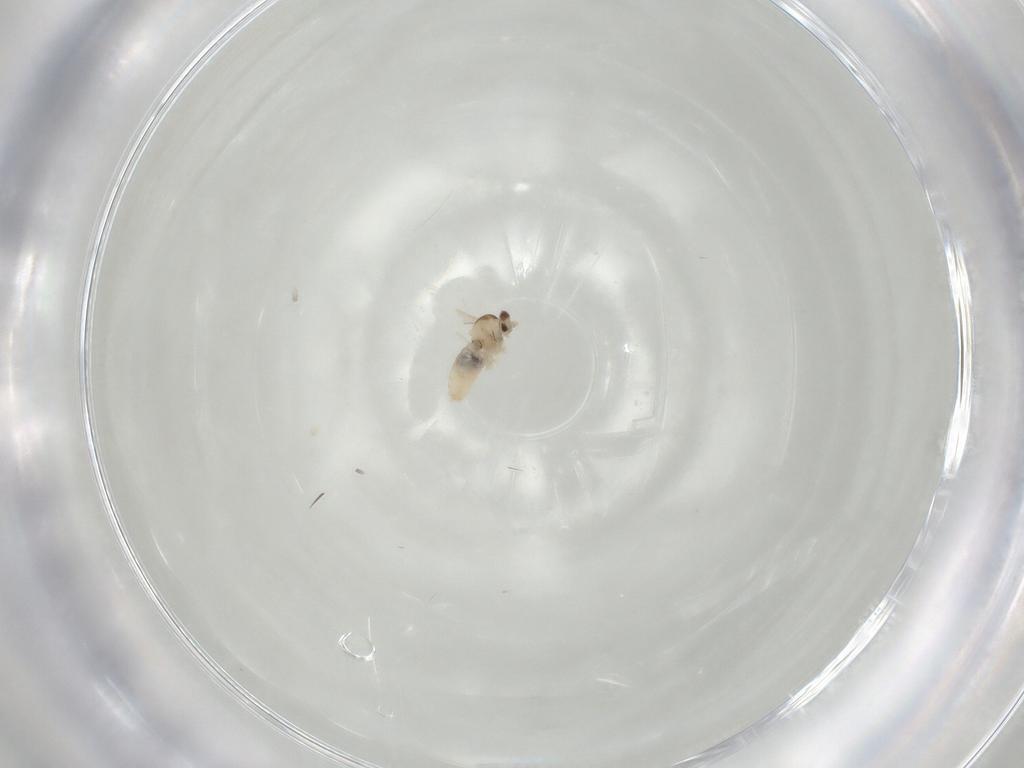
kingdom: Animalia
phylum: Arthropoda
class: Insecta
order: Diptera
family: Cecidomyiidae
